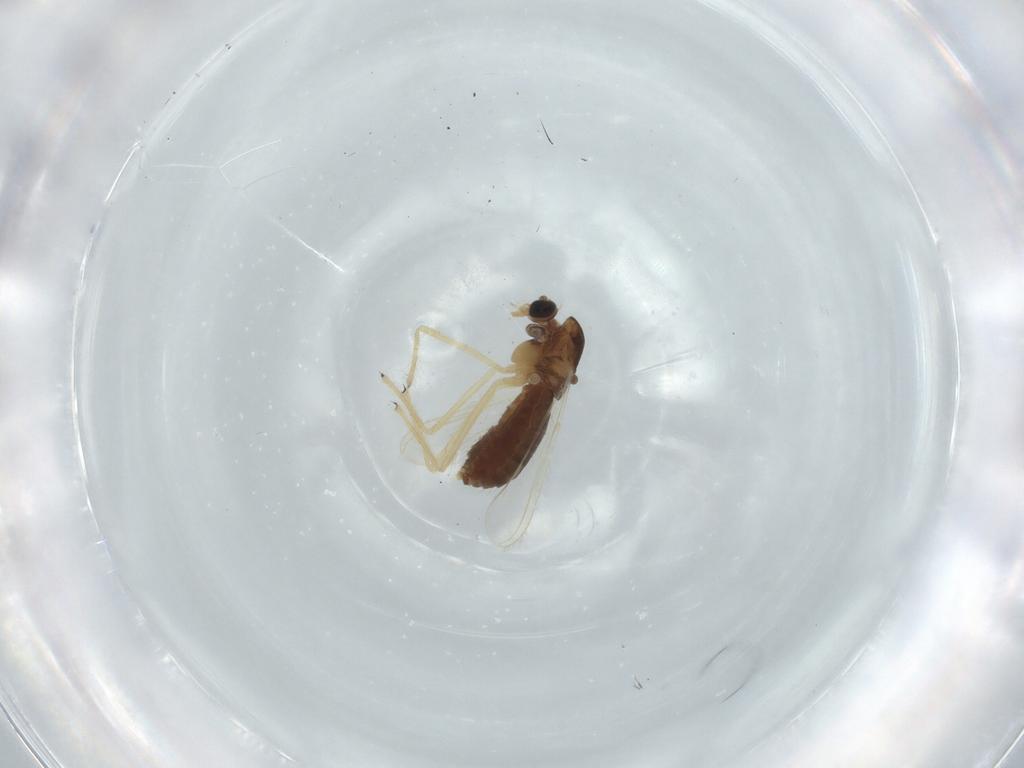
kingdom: Animalia
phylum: Arthropoda
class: Insecta
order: Diptera
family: Chironomidae
